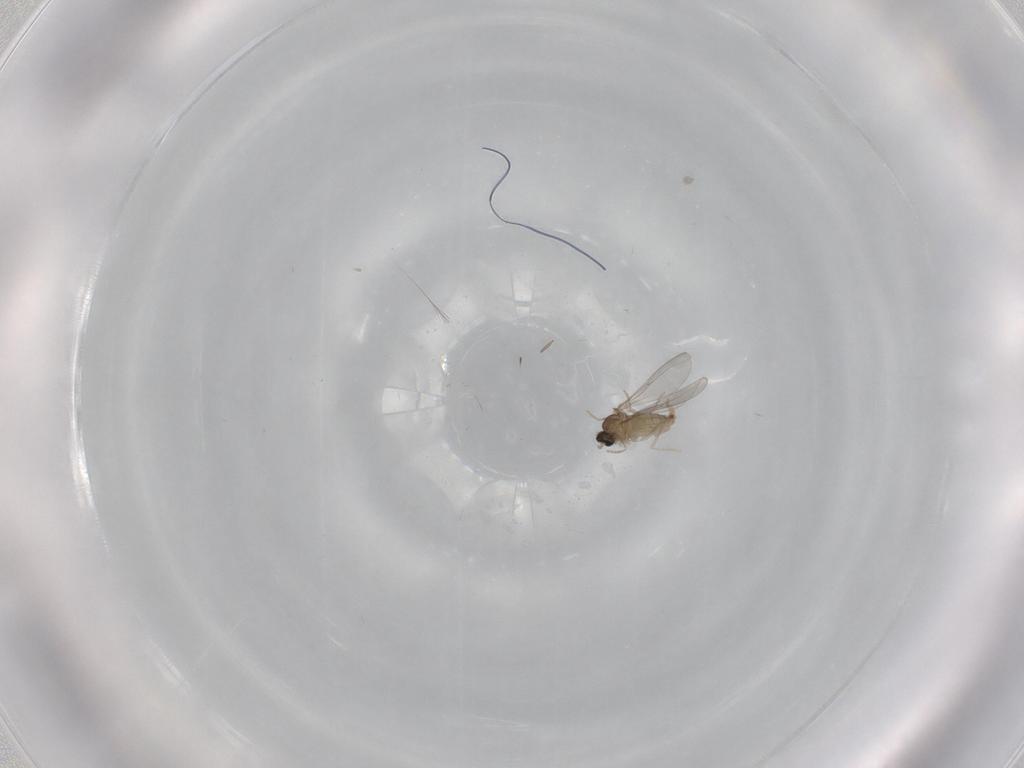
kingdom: Animalia
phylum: Arthropoda
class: Insecta
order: Diptera
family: Cecidomyiidae
